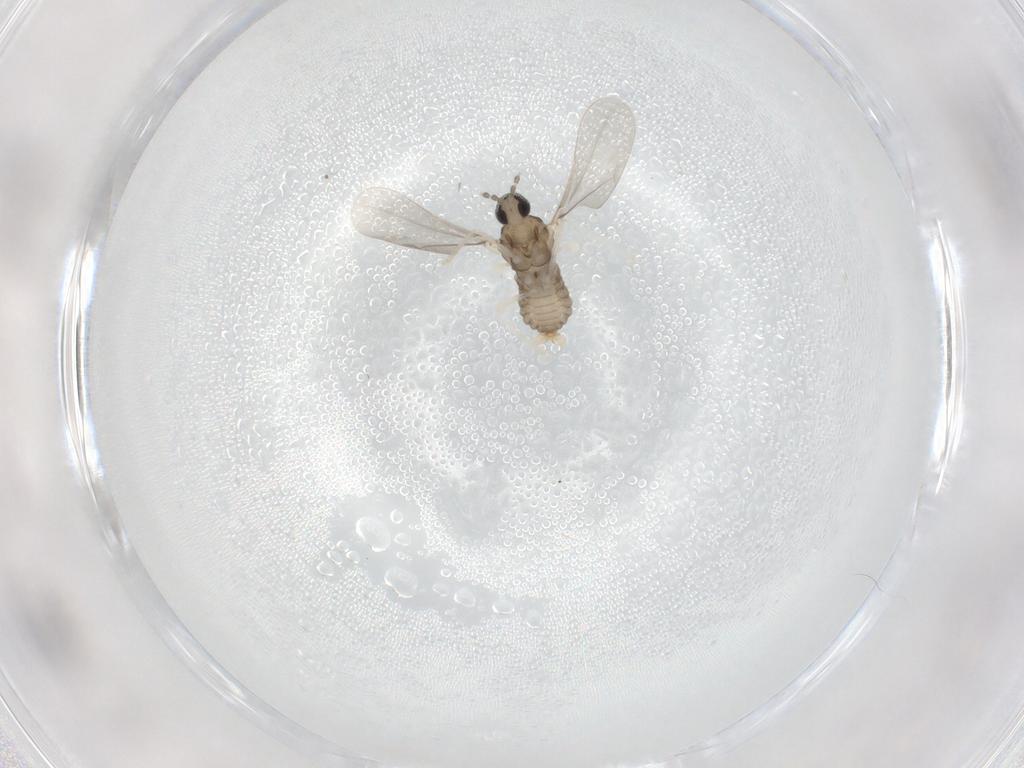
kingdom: Animalia
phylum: Arthropoda
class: Insecta
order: Diptera
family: Cecidomyiidae
